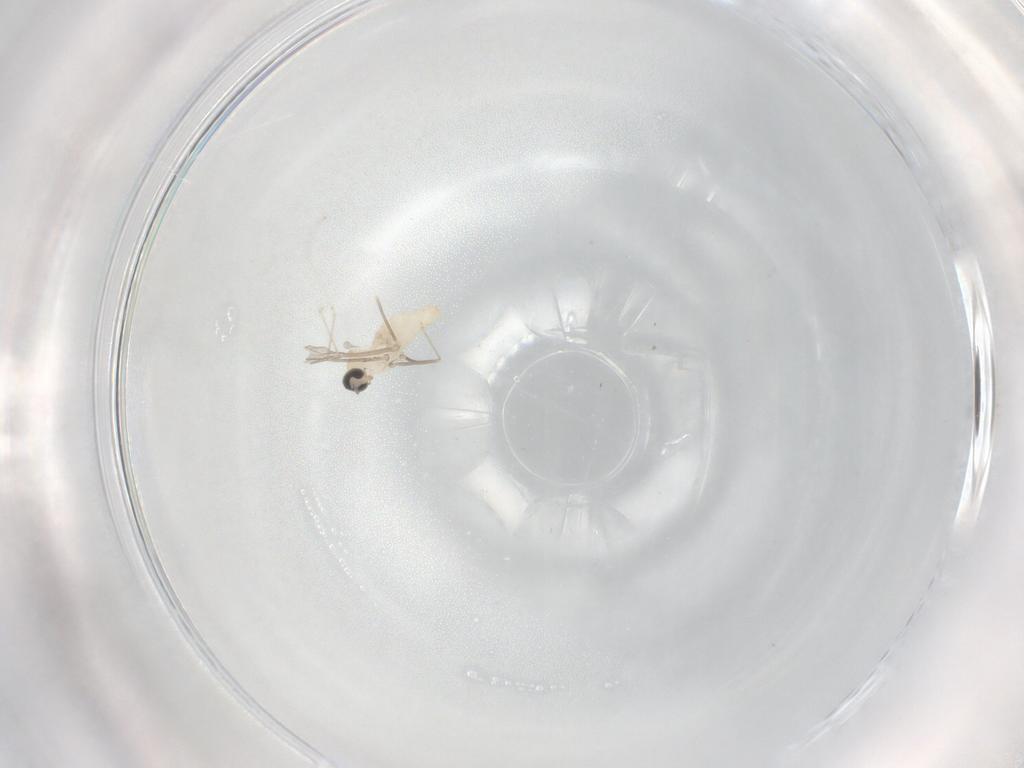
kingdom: Animalia
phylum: Arthropoda
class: Insecta
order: Diptera
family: Cecidomyiidae
